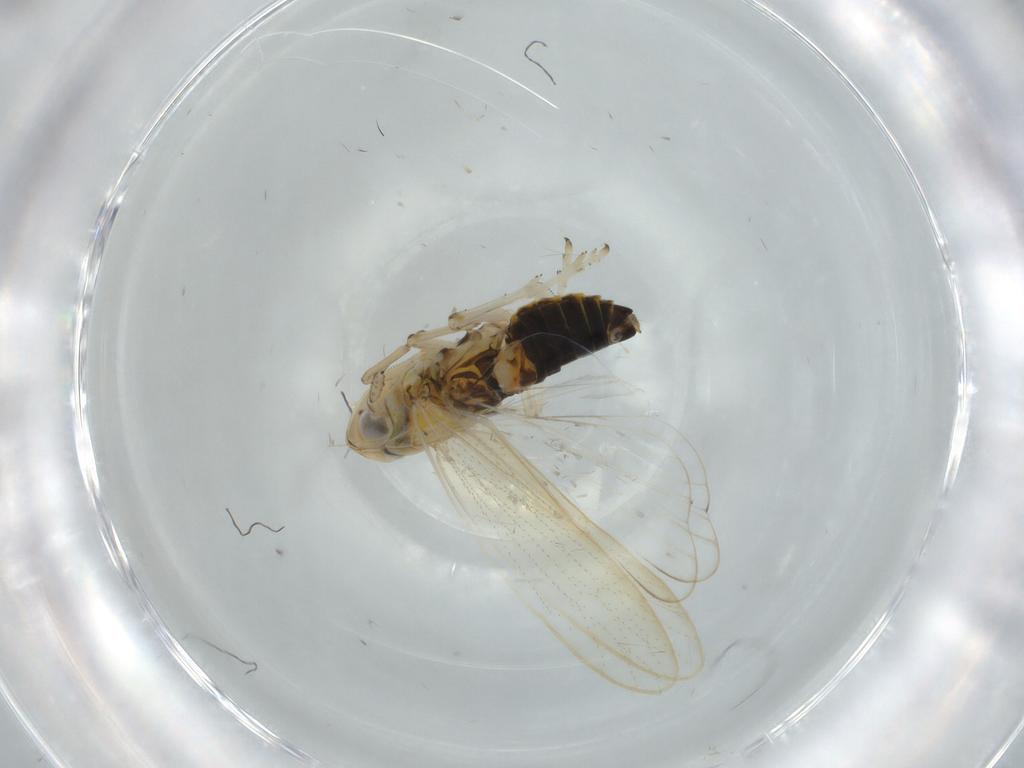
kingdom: Animalia
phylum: Arthropoda
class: Insecta
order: Hemiptera
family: Delphacidae
